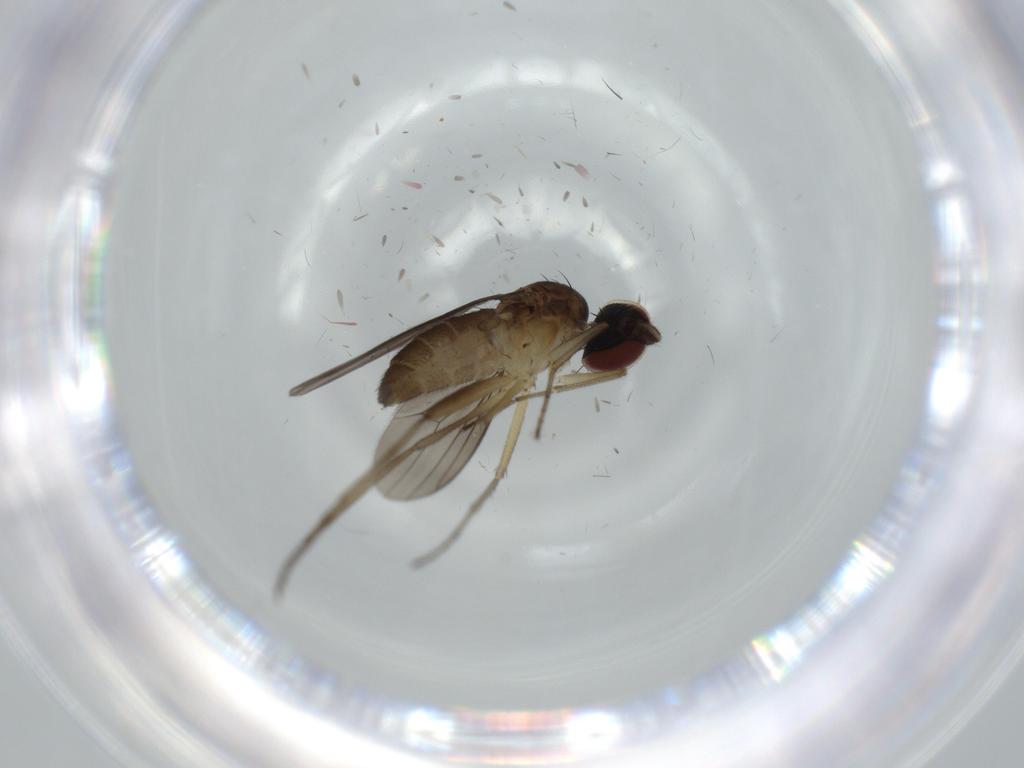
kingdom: Animalia
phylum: Arthropoda
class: Insecta
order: Diptera
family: Dolichopodidae
